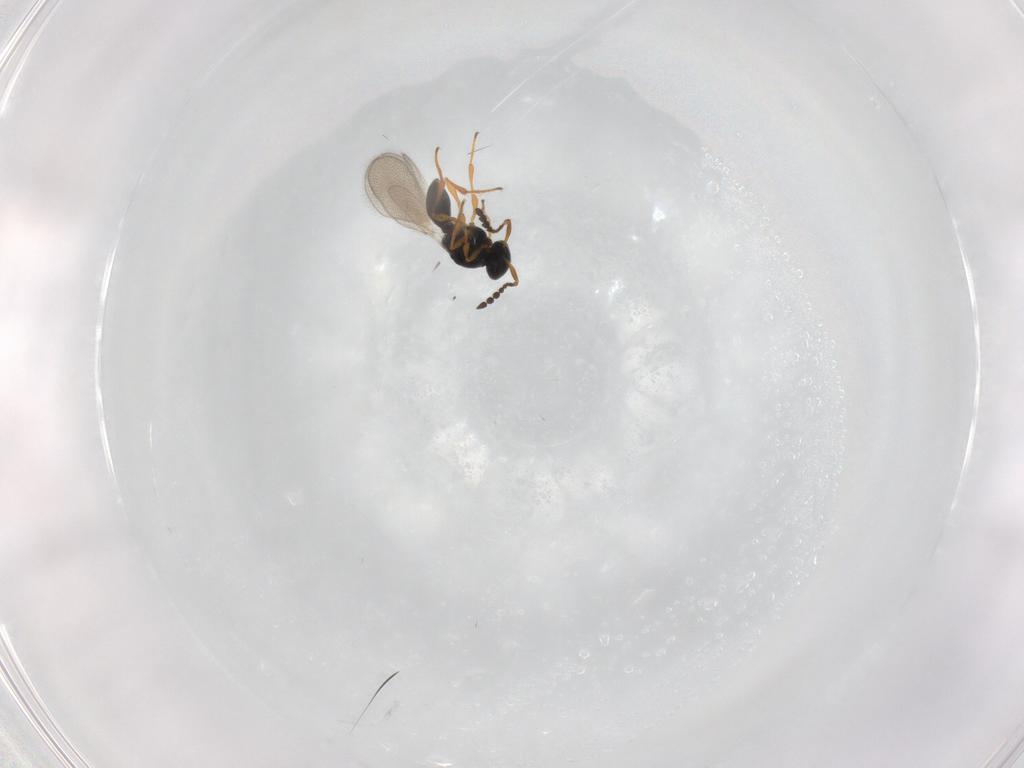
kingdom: Animalia
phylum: Arthropoda
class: Insecta
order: Hymenoptera
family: Platygastridae
